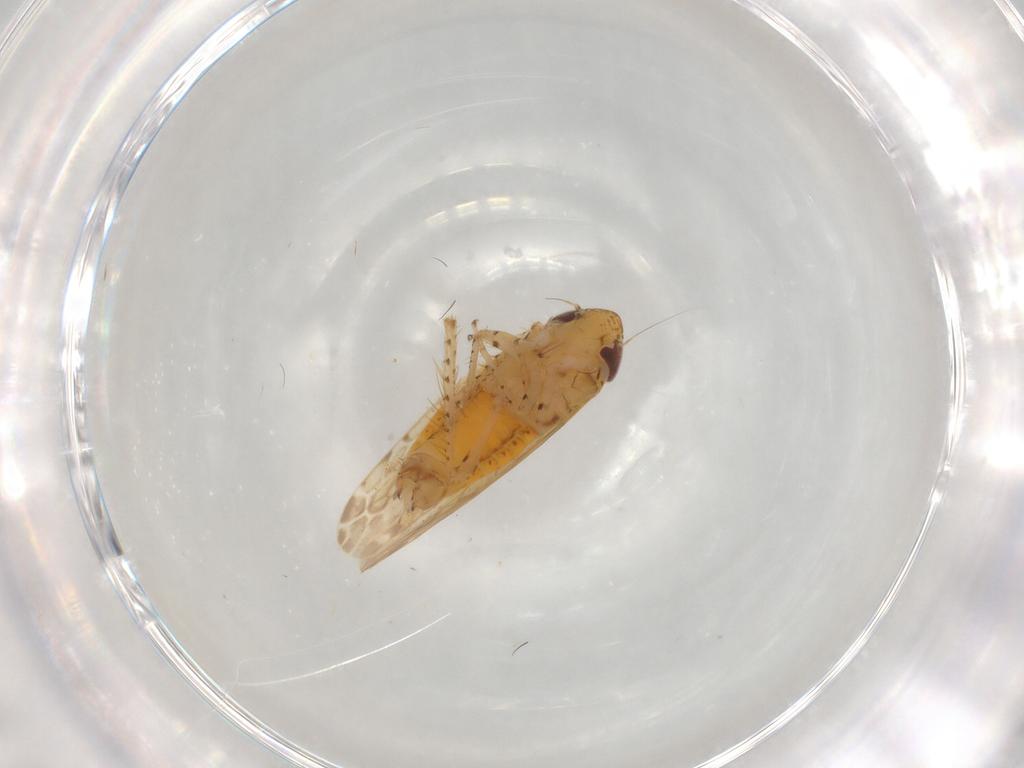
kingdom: Animalia
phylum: Arthropoda
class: Insecta
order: Hemiptera
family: Cicadellidae
